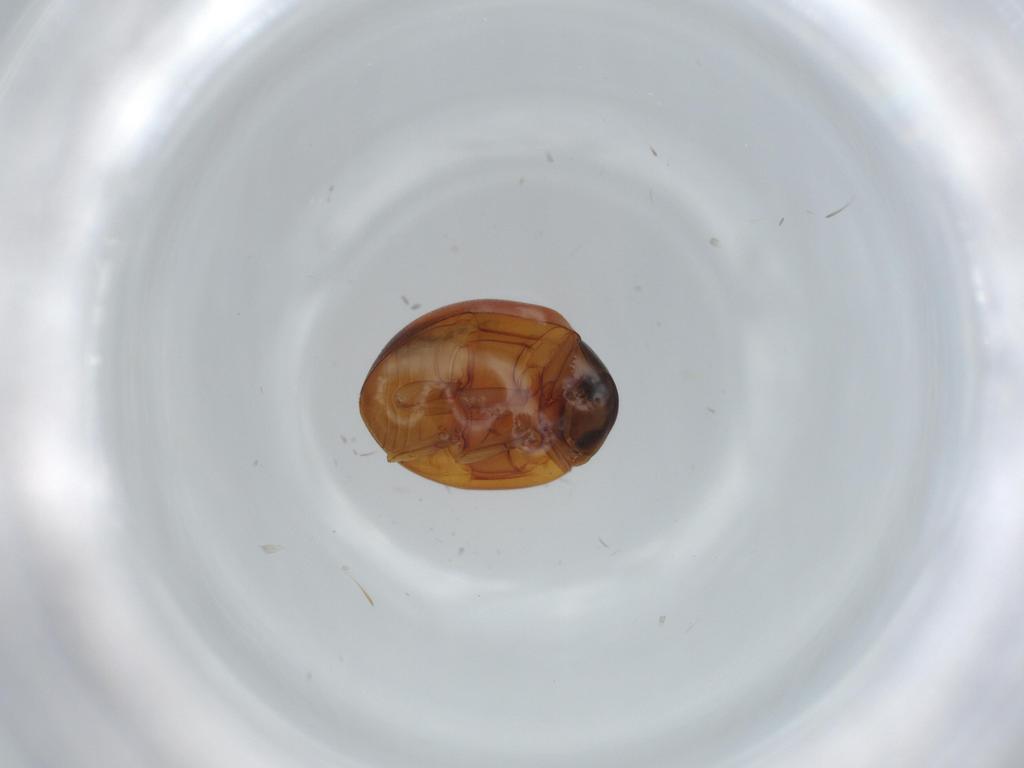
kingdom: Animalia
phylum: Arthropoda
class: Insecta
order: Coleoptera
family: Coccinellidae
